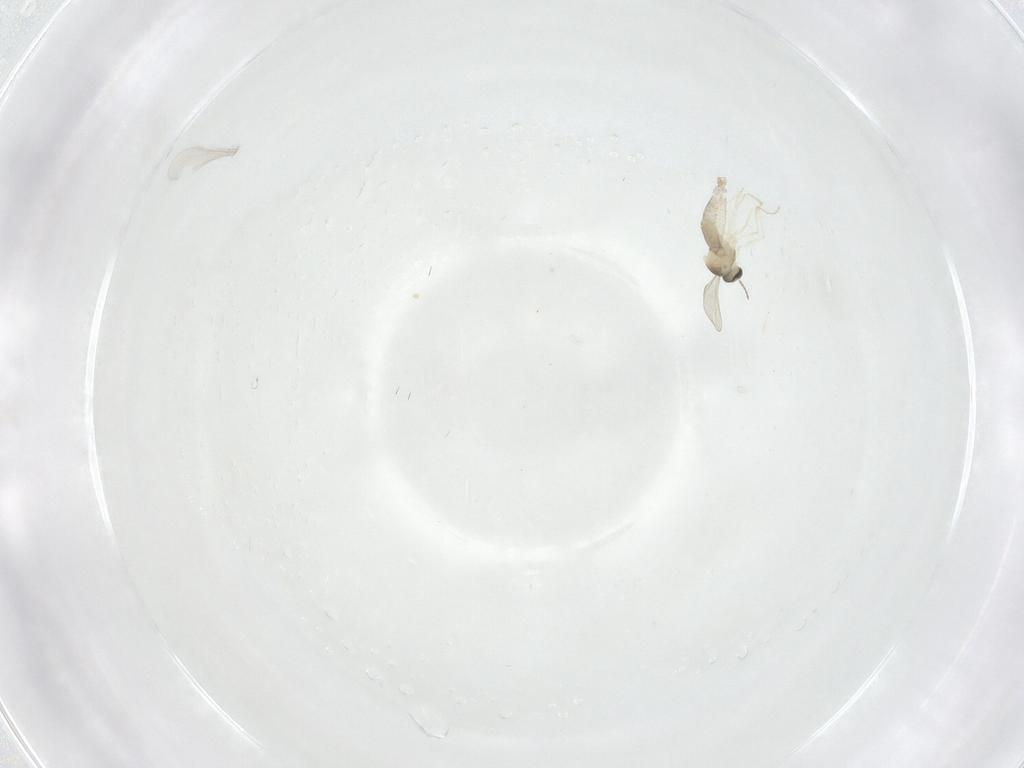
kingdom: Animalia
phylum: Arthropoda
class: Insecta
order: Diptera
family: Cecidomyiidae
